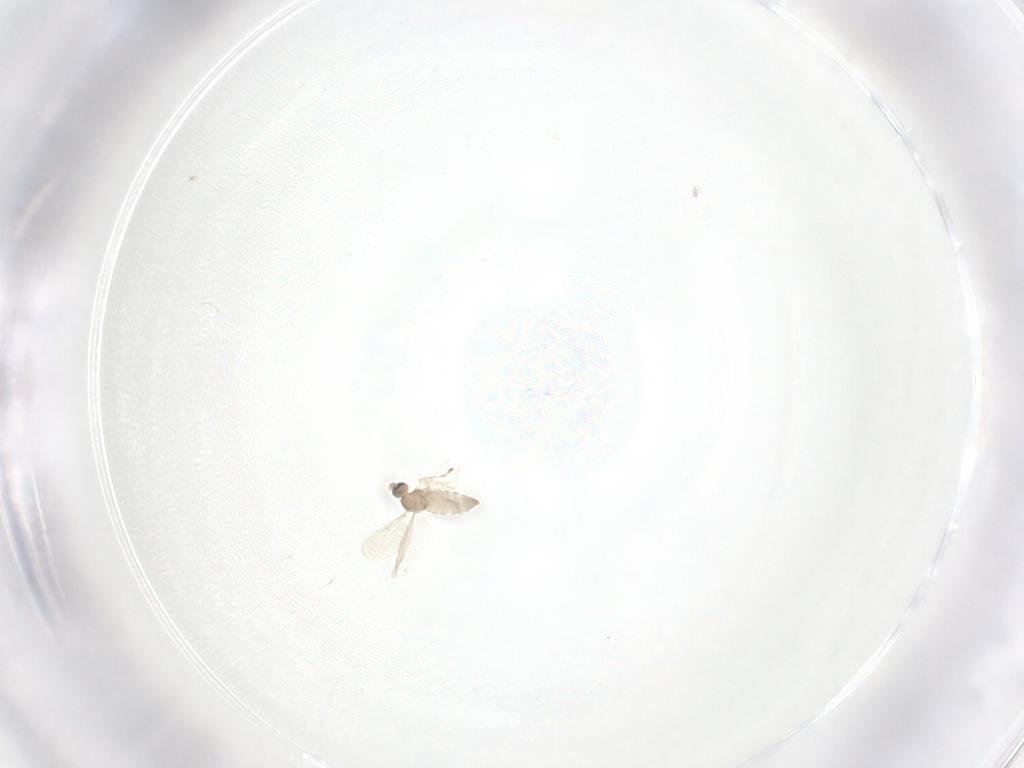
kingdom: Animalia
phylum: Arthropoda
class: Insecta
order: Diptera
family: Cecidomyiidae
